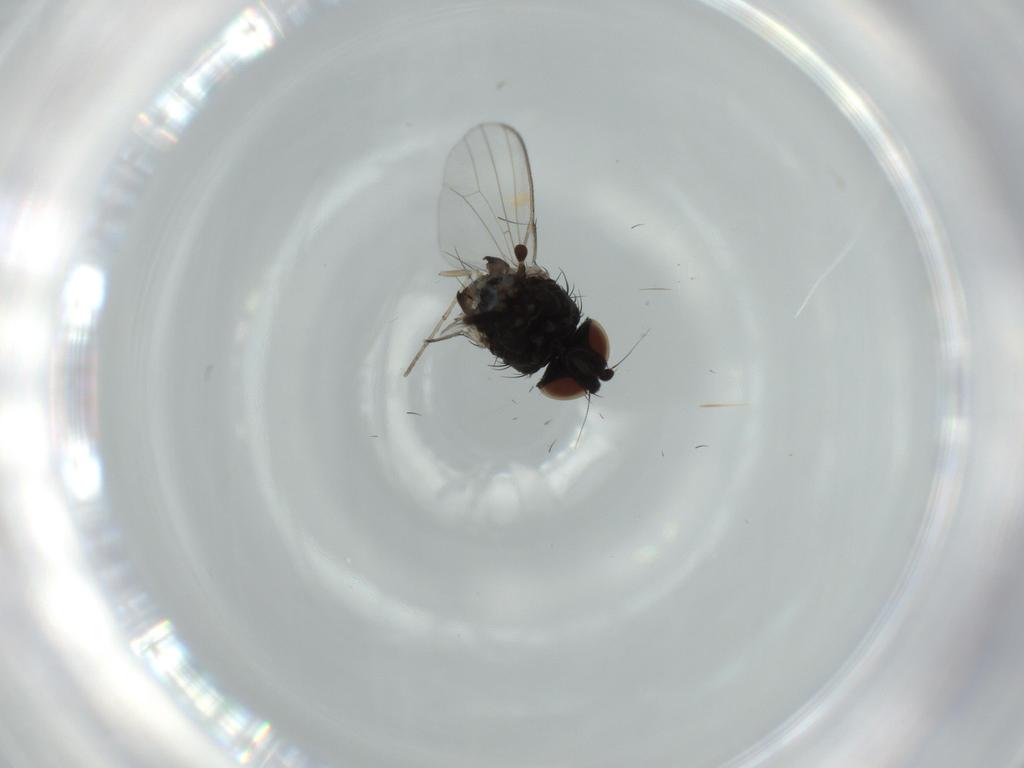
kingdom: Animalia
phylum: Arthropoda
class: Insecta
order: Diptera
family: Milichiidae
